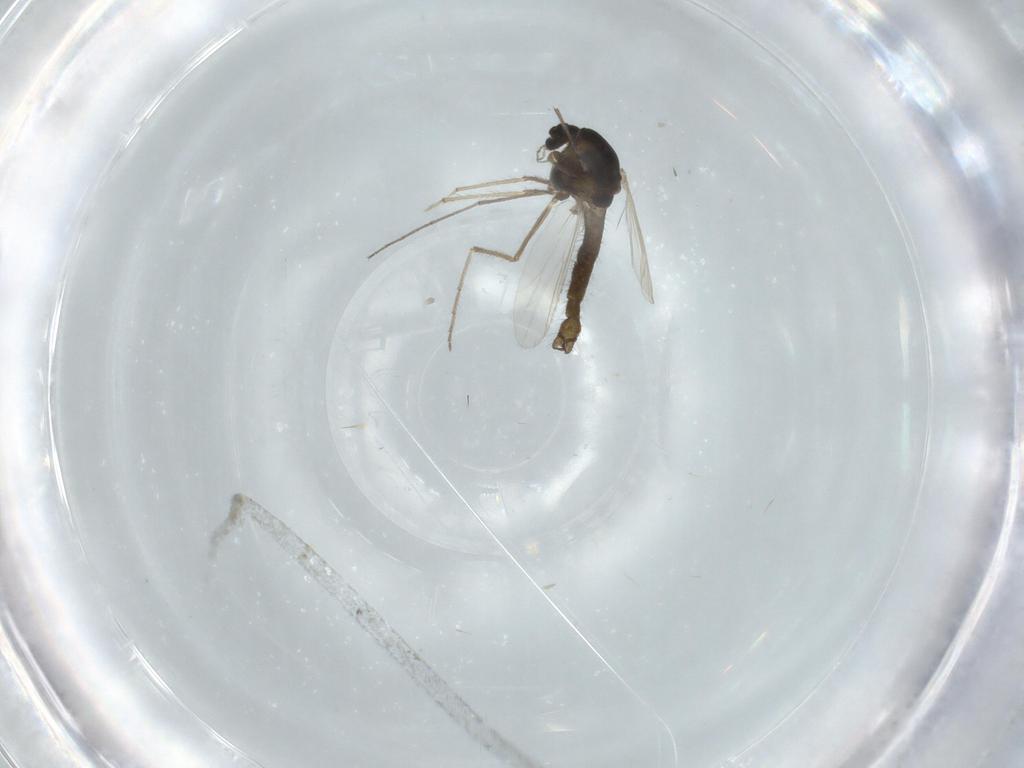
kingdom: Animalia
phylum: Arthropoda
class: Insecta
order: Diptera
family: Chironomidae
